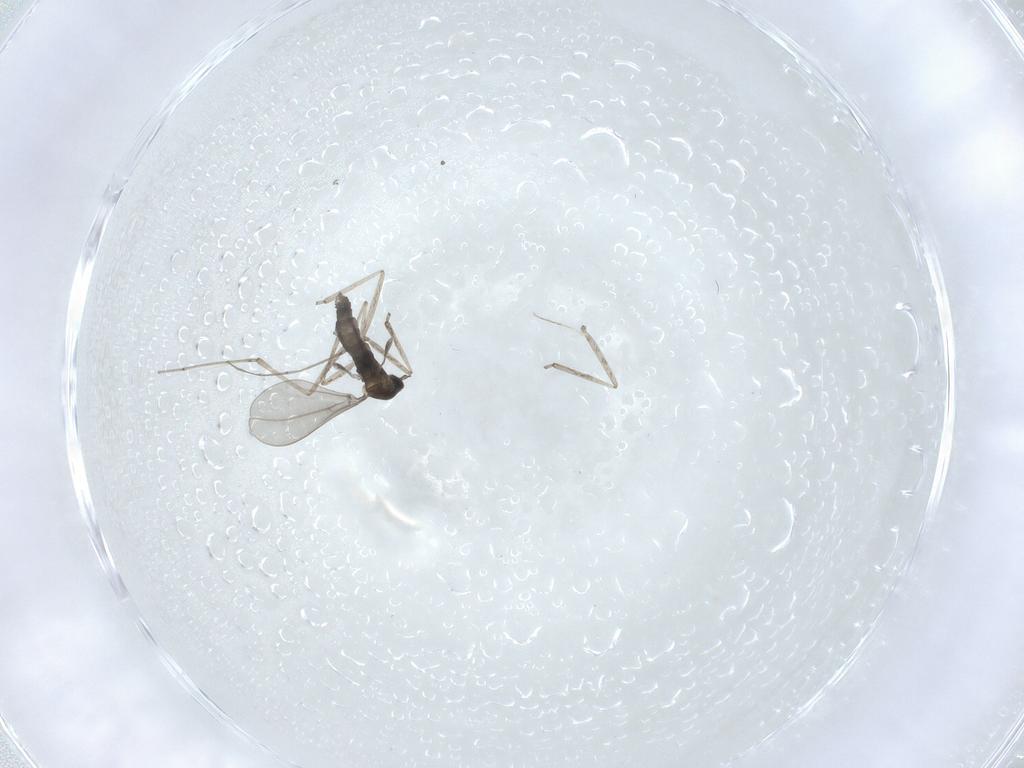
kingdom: Animalia
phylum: Arthropoda
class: Insecta
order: Diptera
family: Cecidomyiidae
